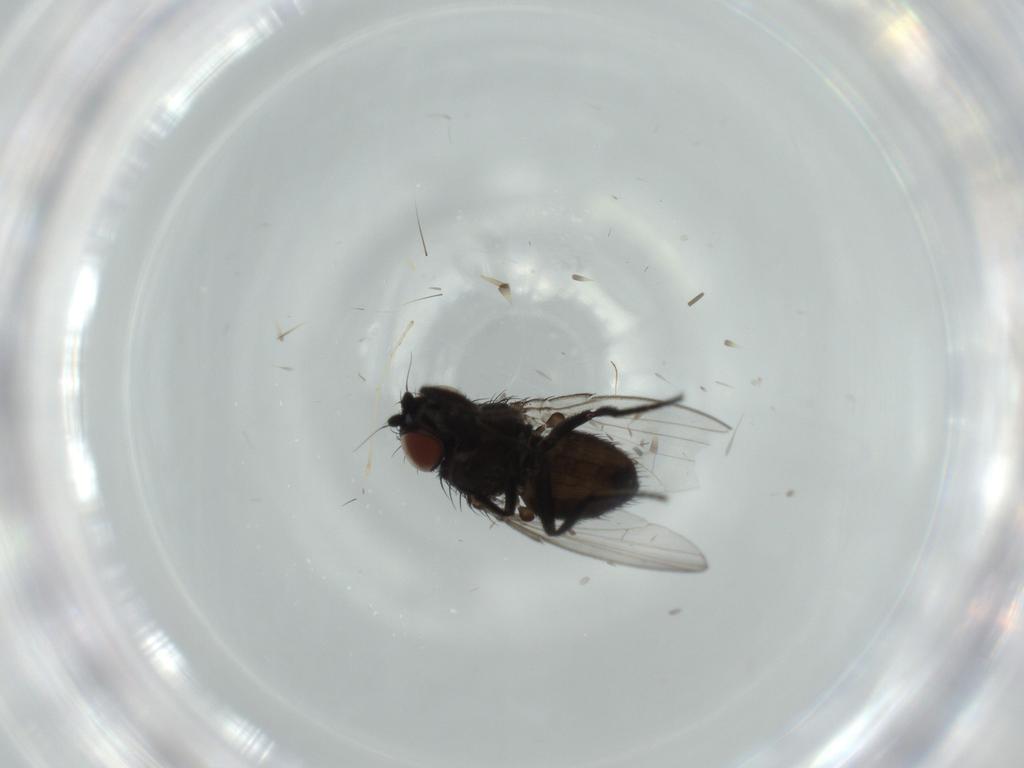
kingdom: Animalia
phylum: Arthropoda
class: Insecta
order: Diptera
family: Milichiidae
